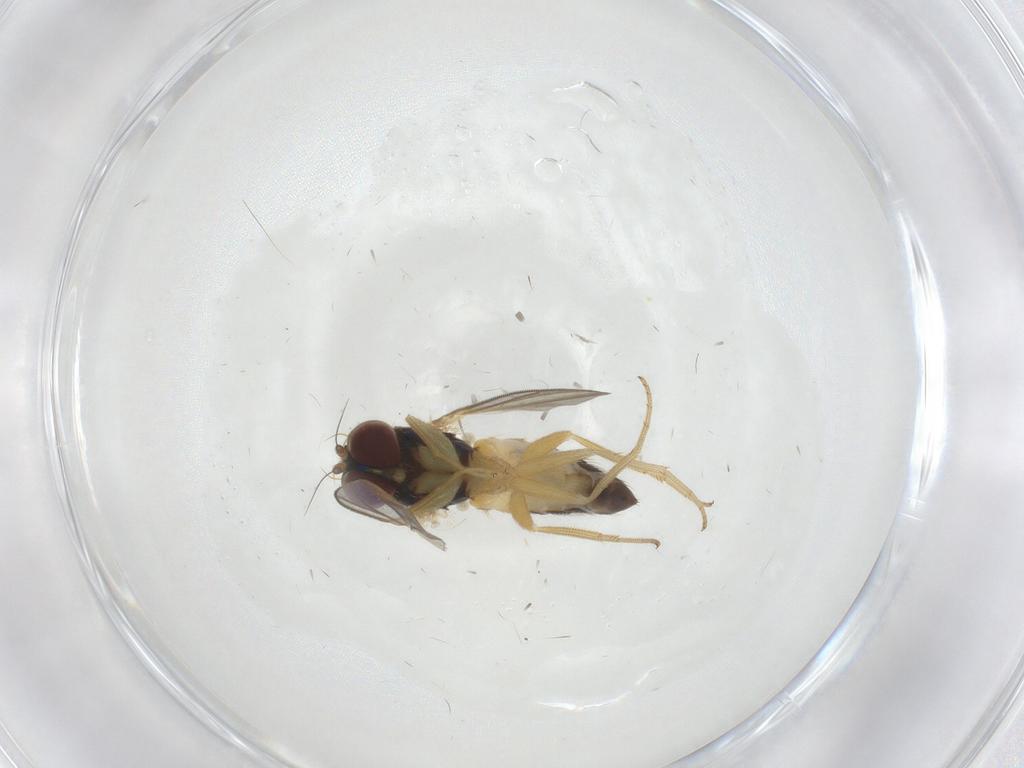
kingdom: Animalia
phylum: Arthropoda
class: Insecta
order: Diptera
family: Dolichopodidae
